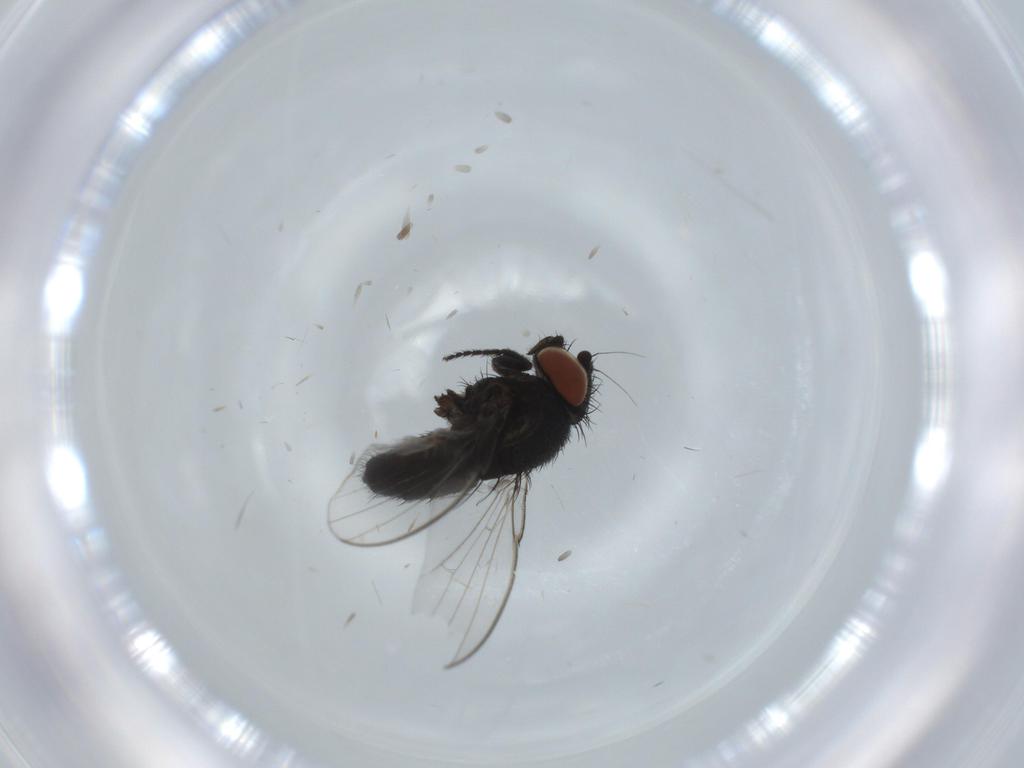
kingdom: Animalia
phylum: Arthropoda
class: Insecta
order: Diptera
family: Milichiidae
